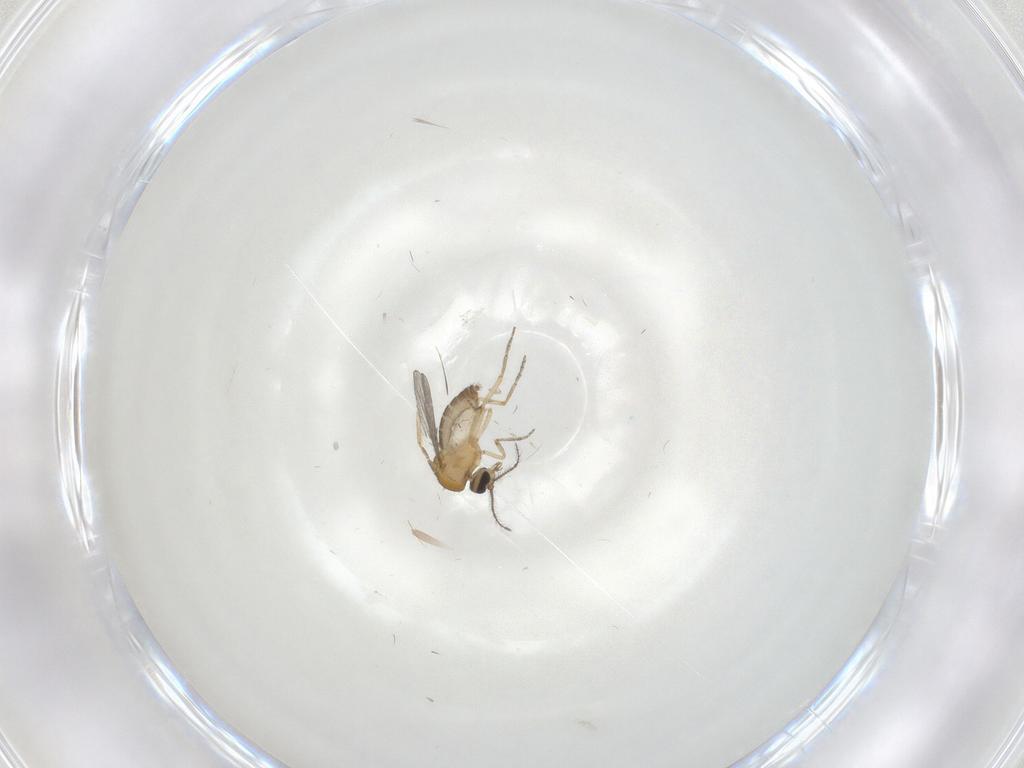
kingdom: Animalia
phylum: Arthropoda
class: Insecta
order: Diptera
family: Ceratopogonidae
